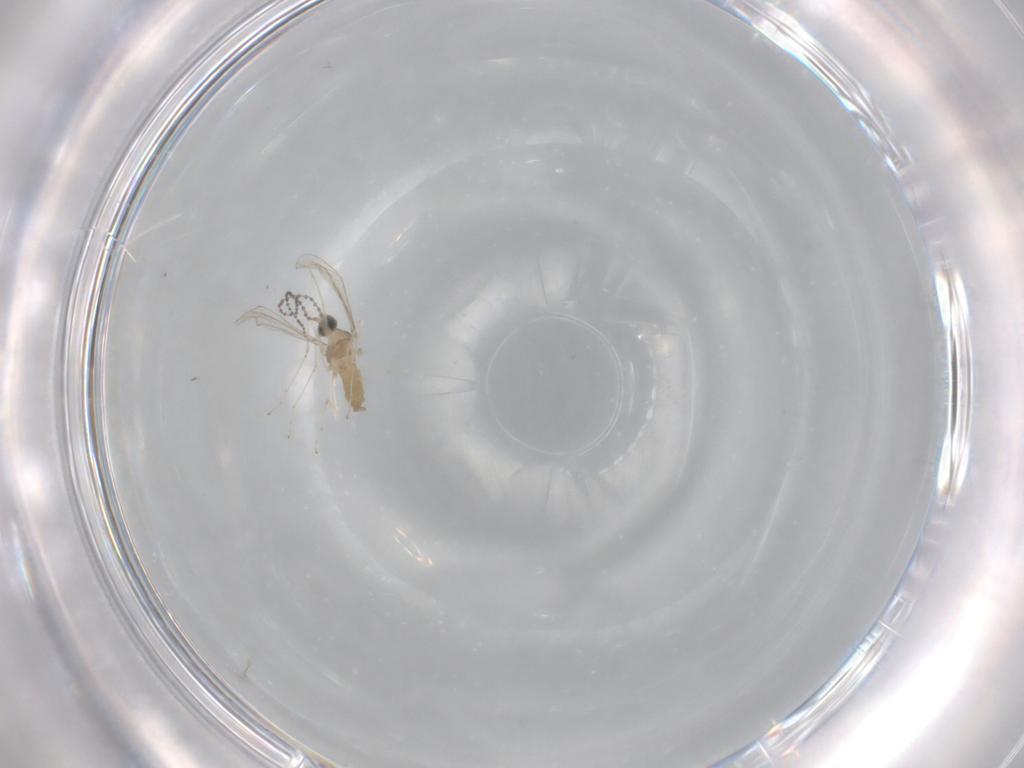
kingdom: Animalia
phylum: Arthropoda
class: Insecta
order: Diptera
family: Cecidomyiidae
